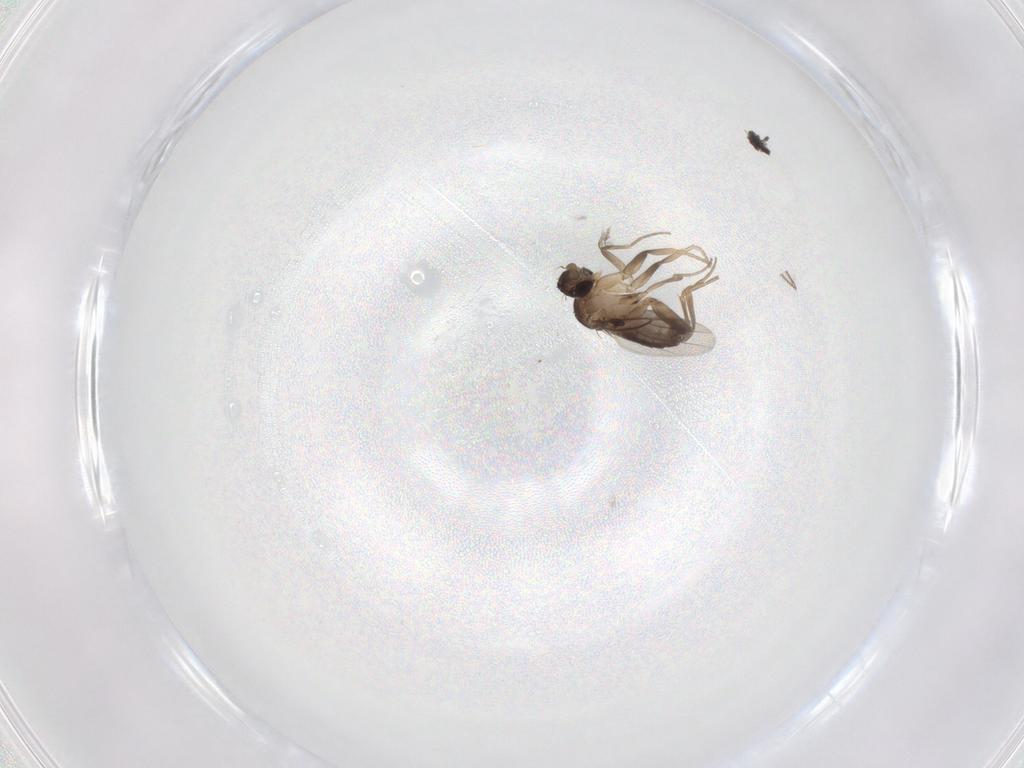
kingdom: Animalia
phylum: Arthropoda
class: Insecta
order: Diptera
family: Sciaridae
